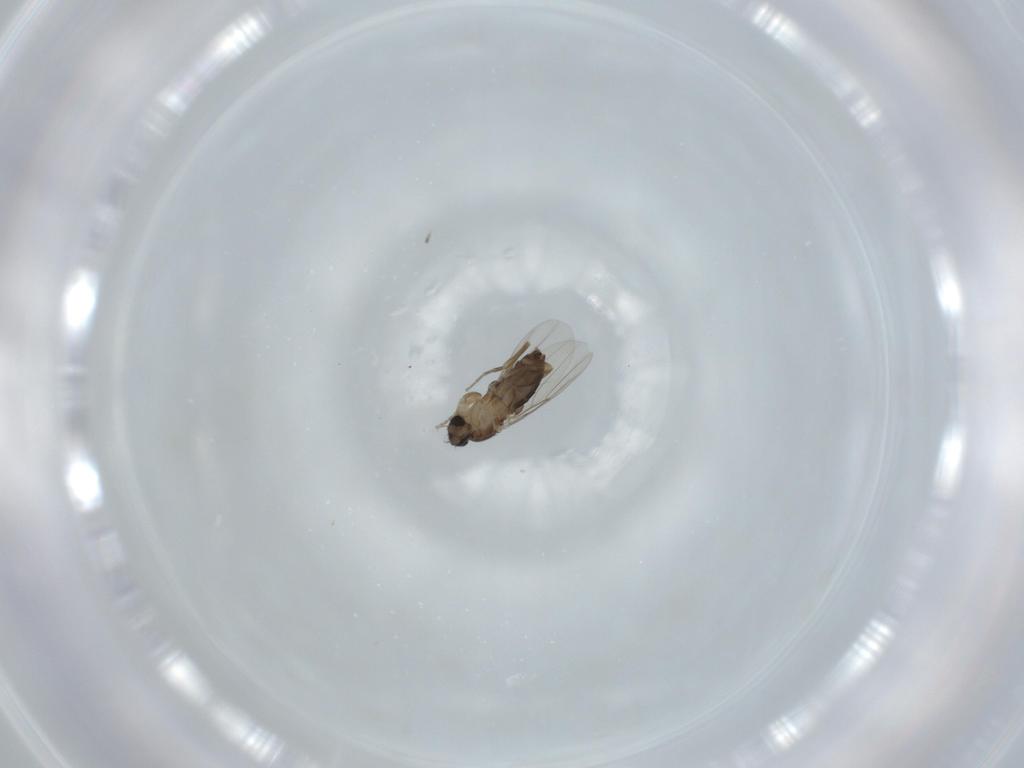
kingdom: Animalia
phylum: Arthropoda
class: Insecta
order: Diptera
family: Phoridae
